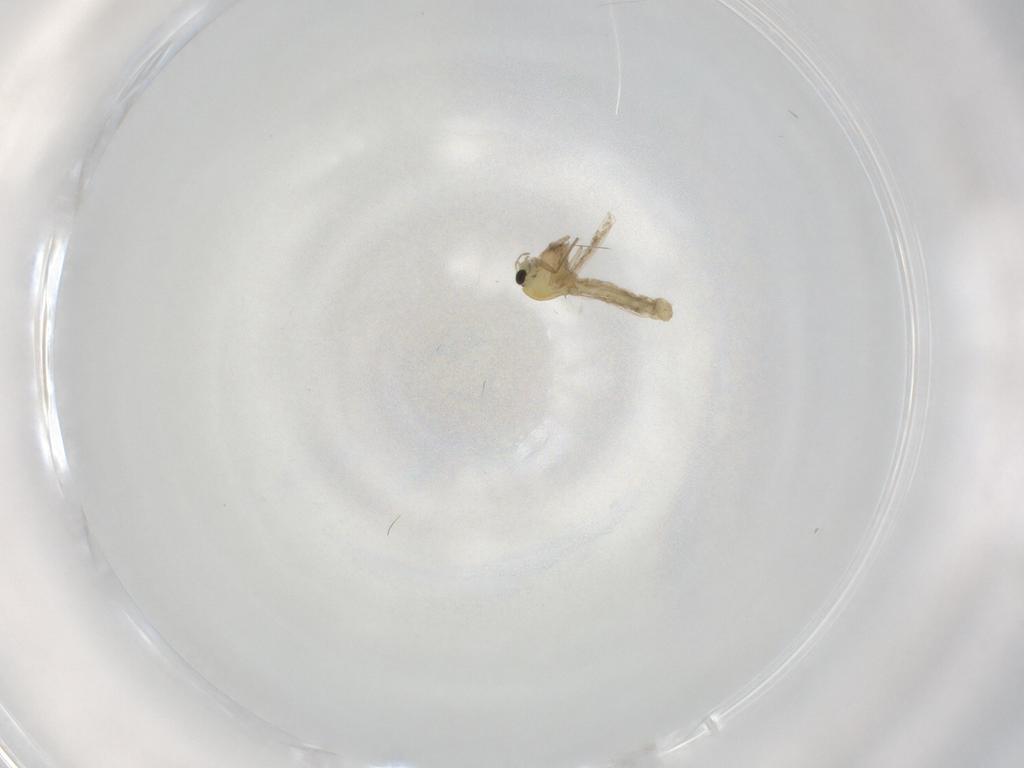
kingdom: Animalia
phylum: Arthropoda
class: Insecta
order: Diptera
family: Chironomidae
